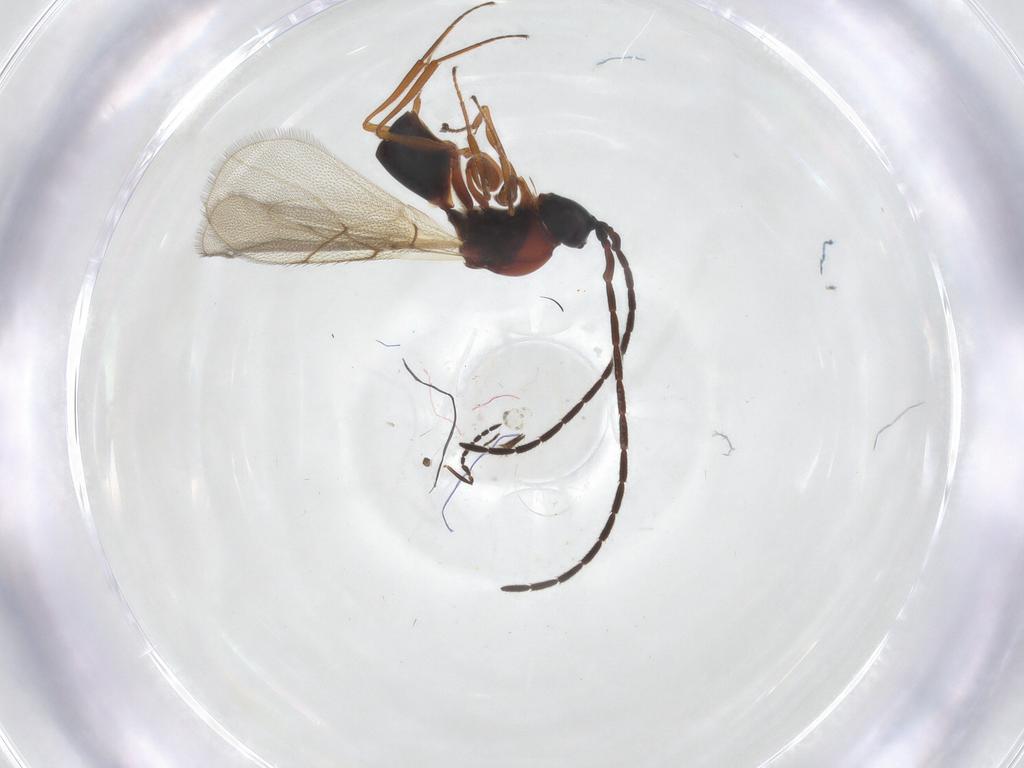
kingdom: Animalia
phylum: Arthropoda
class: Insecta
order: Hymenoptera
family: Figitidae
